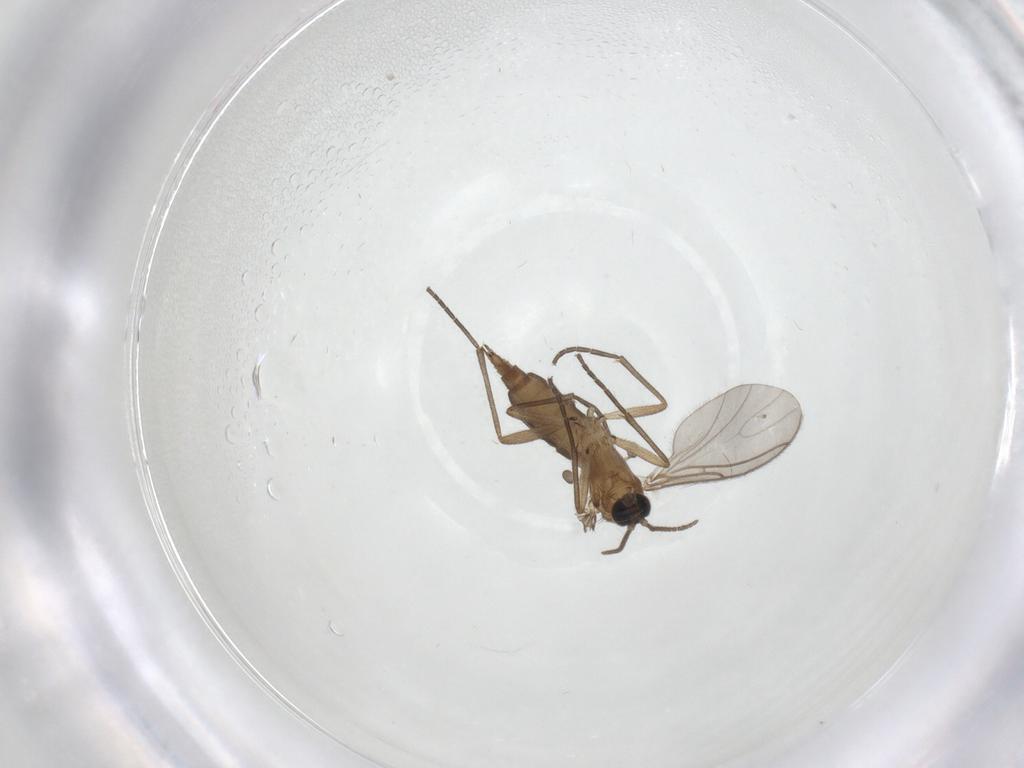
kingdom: Animalia
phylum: Arthropoda
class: Insecta
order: Diptera
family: Sciaridae
